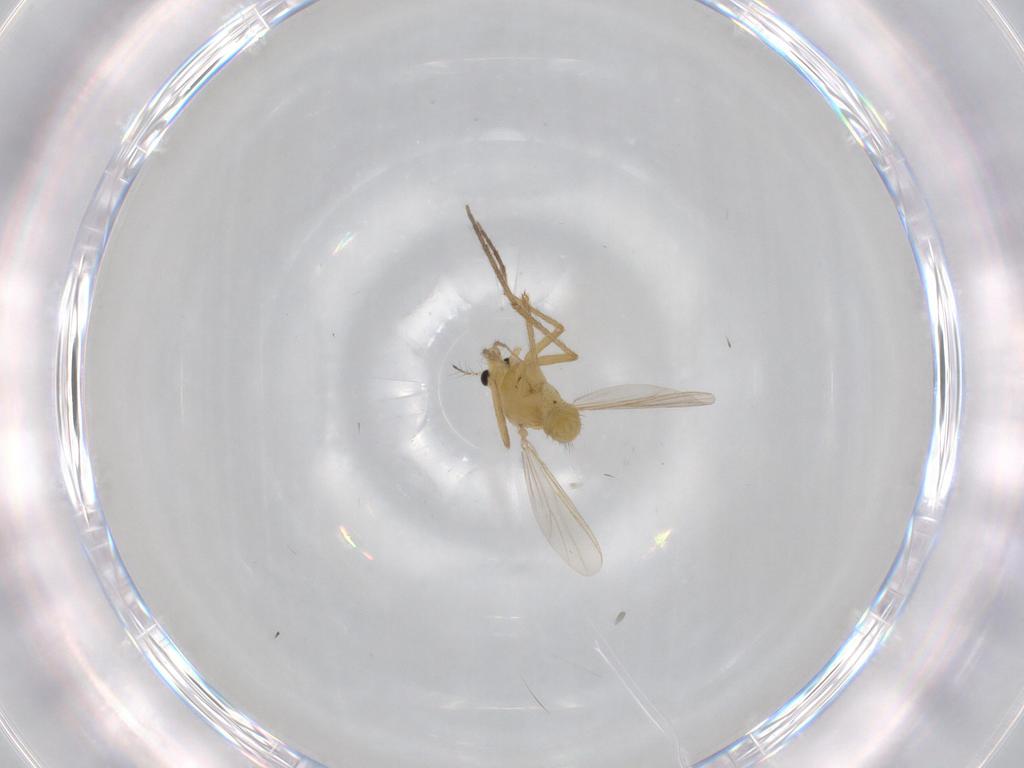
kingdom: Animalia
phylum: Arthropoda
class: Insecta
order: Diptera
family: Chironomidae
